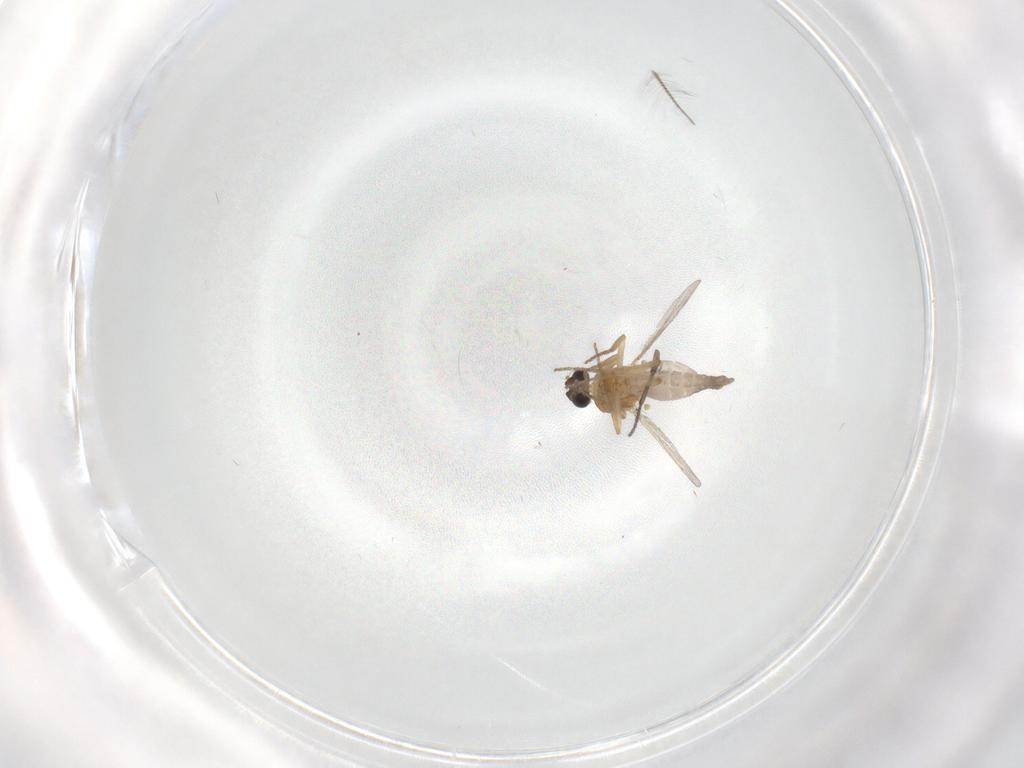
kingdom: Animalia
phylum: Arthropoda
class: Insecta
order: Diptera
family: Ceratopogonidae
